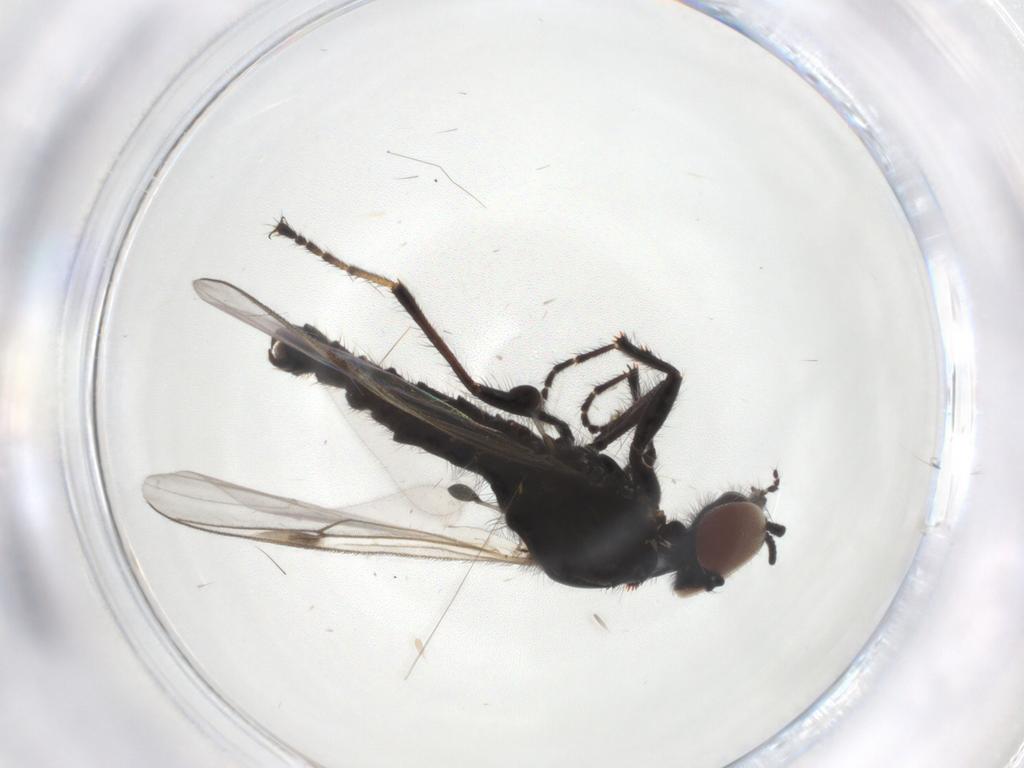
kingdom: Animalia
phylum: Arthropoda
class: Insecta
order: Diptera
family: Bibionidae
